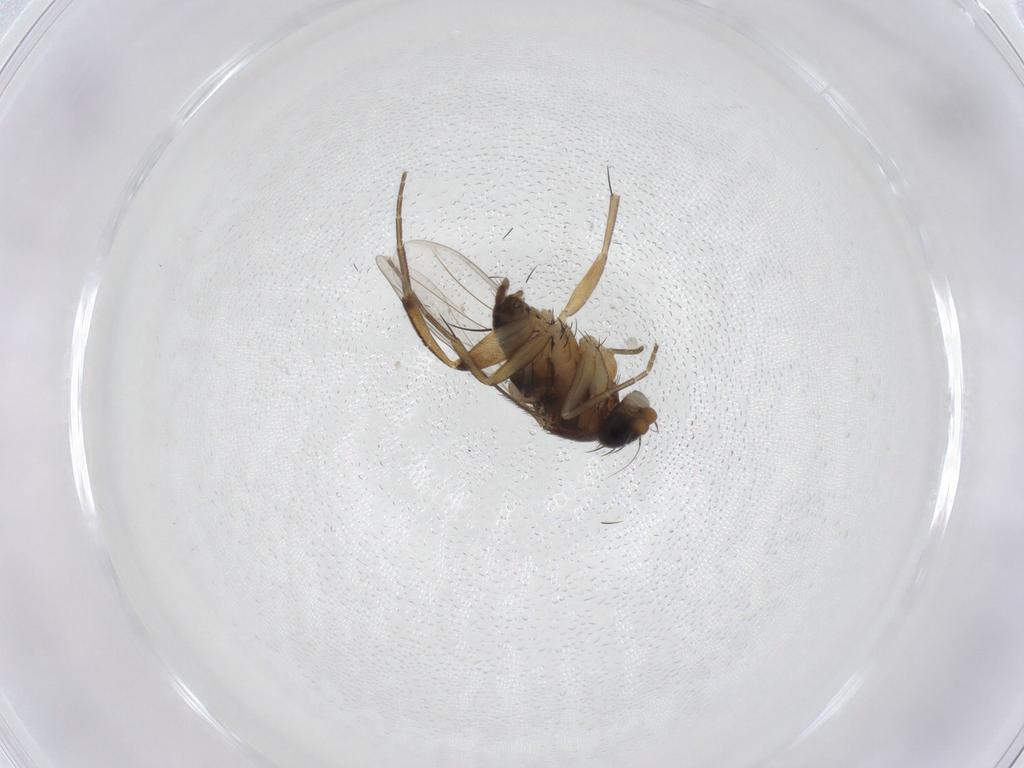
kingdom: Animalia
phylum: Arthropoda
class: Insecta
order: Diptera
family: Phoridae
